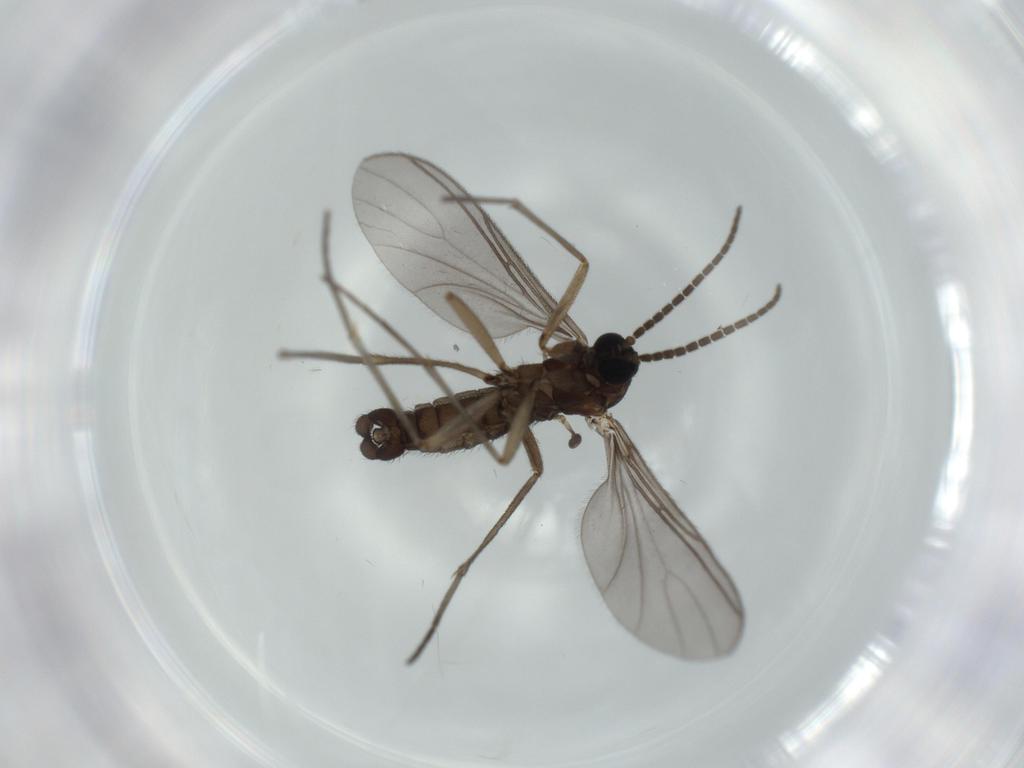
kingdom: Animalia
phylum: Arthropoda
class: Insecta
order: Diptera
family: Sciaridae
